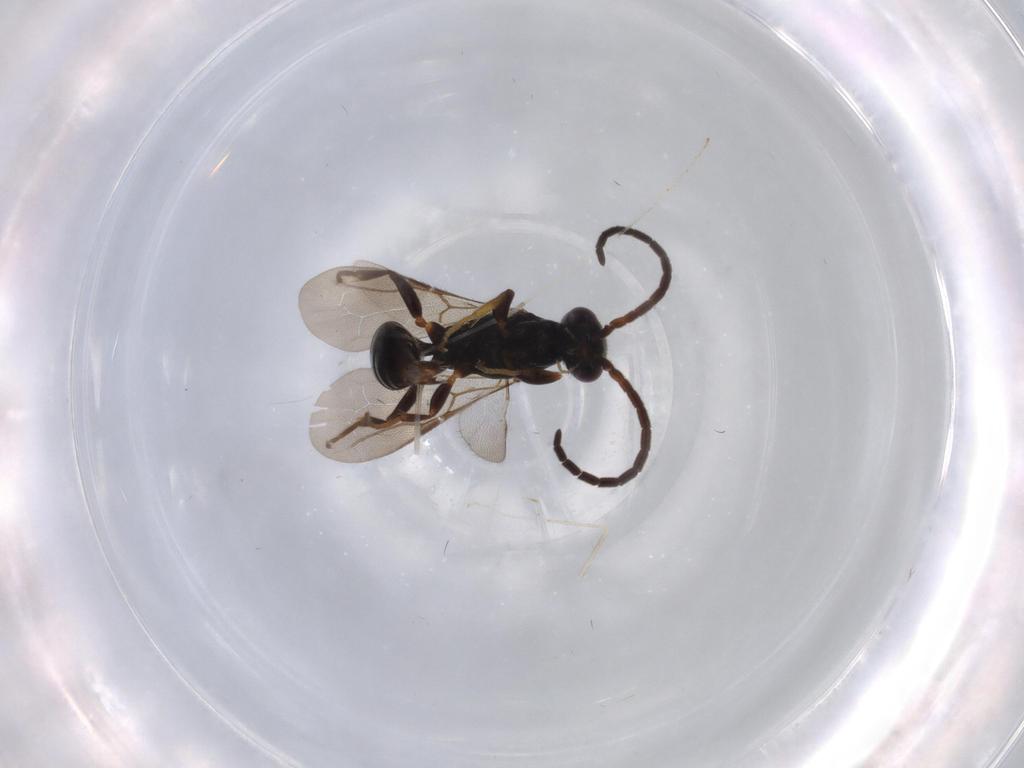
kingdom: Animalia
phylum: Arthropoda
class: Insecta
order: Hymenoptera
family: Bethylidae
